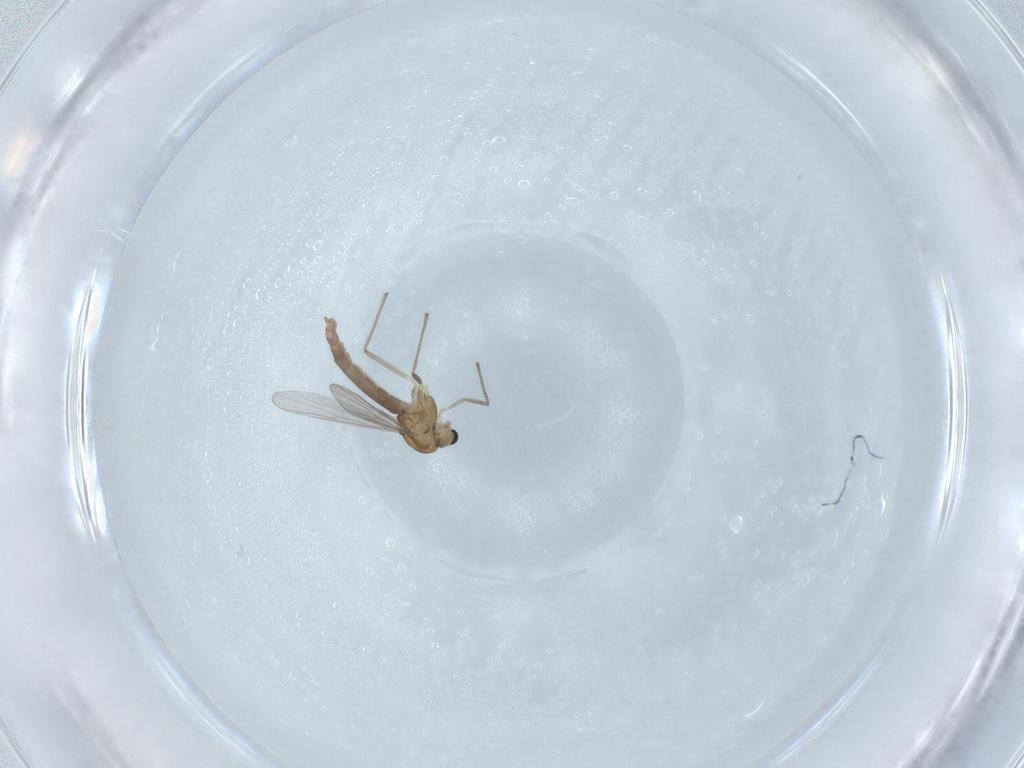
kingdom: Animalia
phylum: Arthropoda
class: Insecta
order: Diptera
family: Chironomidae
